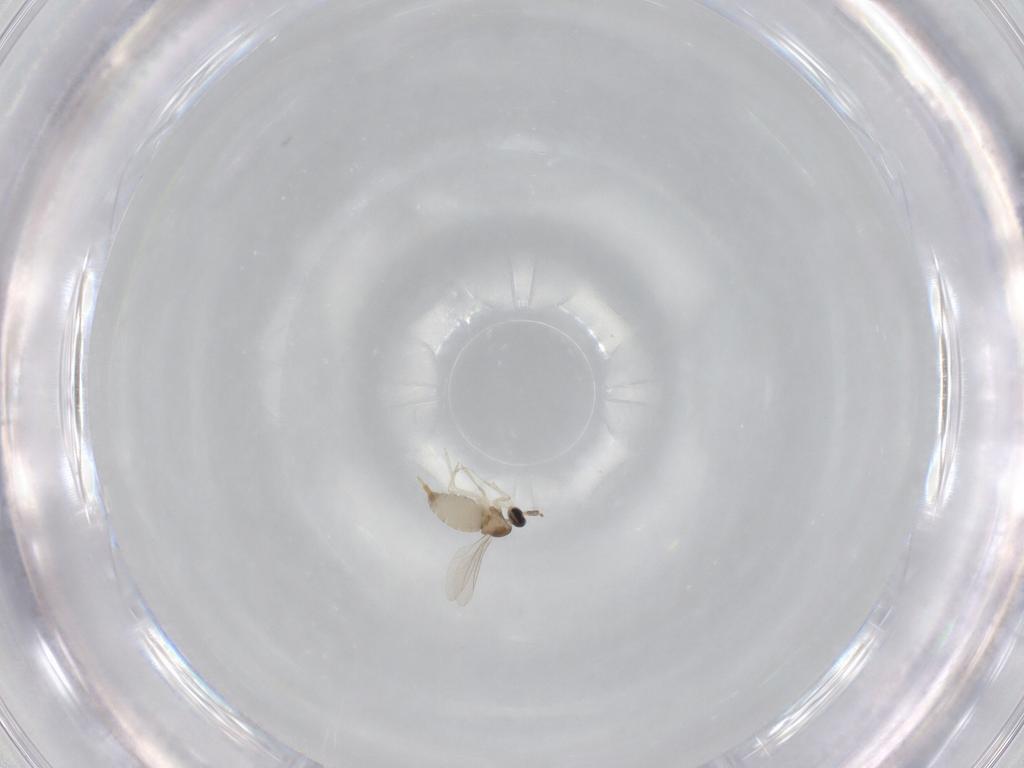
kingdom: Animalia
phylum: Arthropoda
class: Insecta
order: Diptera
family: Cecidomyiidae
